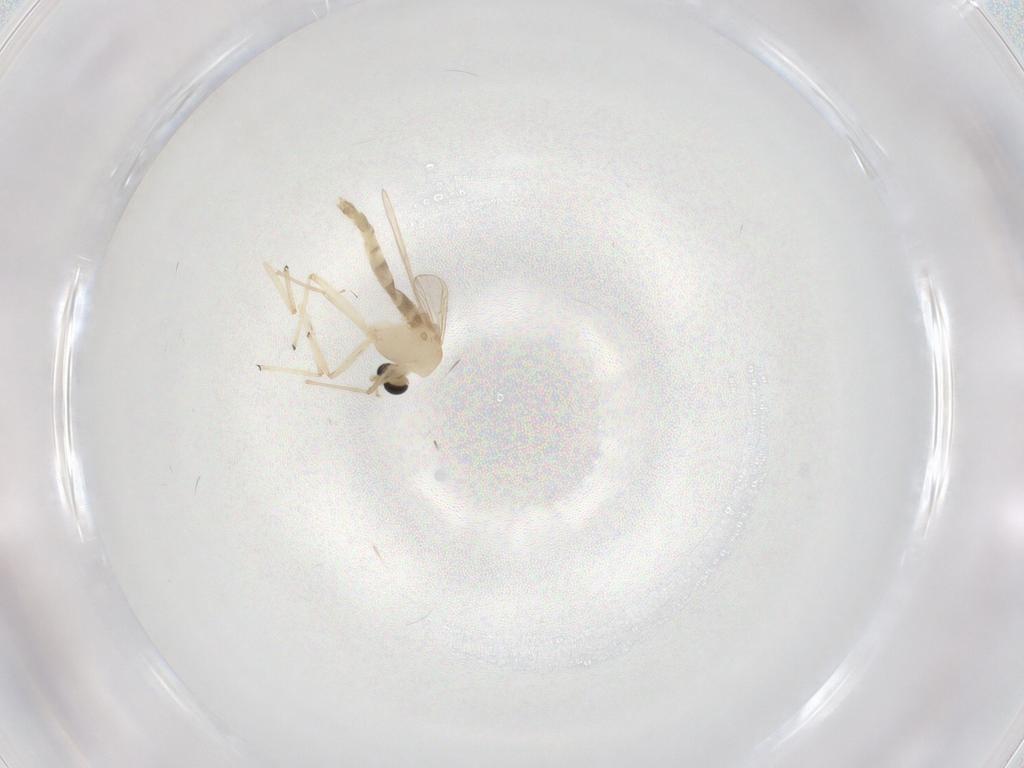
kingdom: Animalia
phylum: Arthropoda
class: Insecta
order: Diptera
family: Chironomidae
